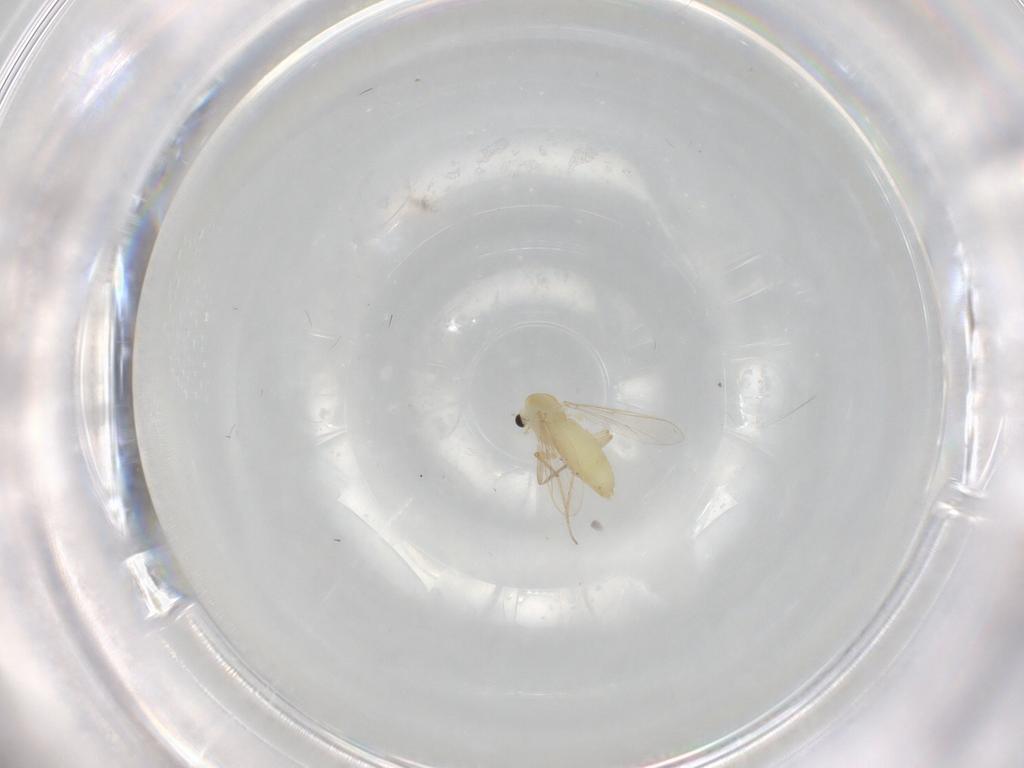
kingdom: Animalia
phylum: Arthropoda
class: Insecta
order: Diptera
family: Chironomidae
